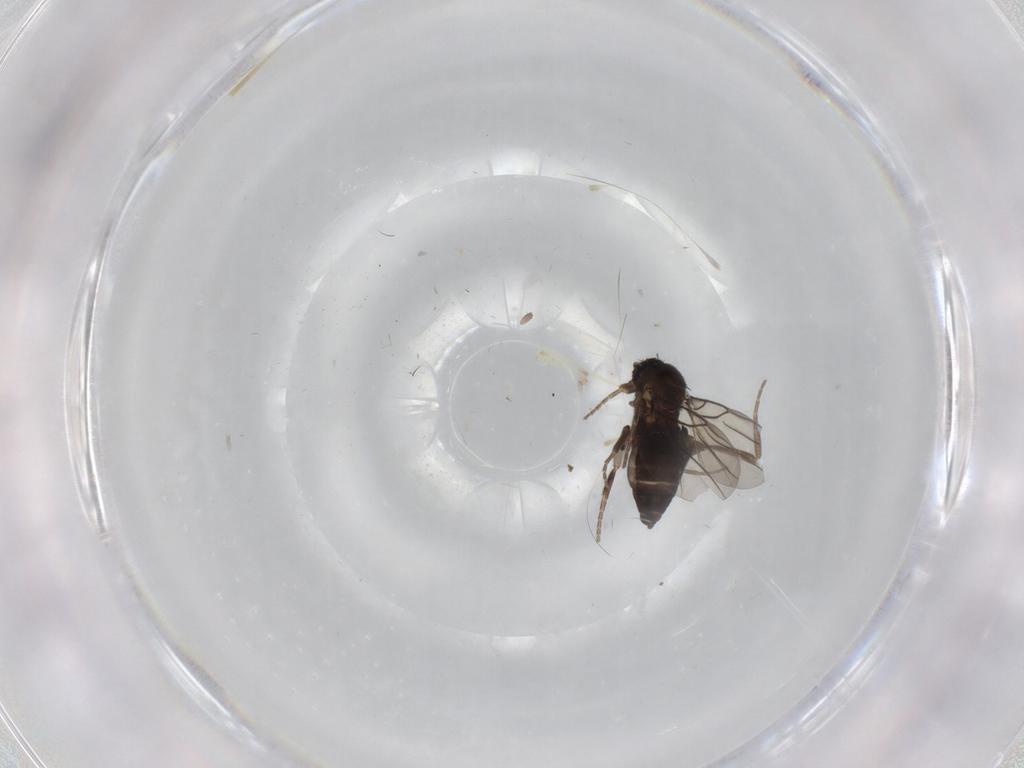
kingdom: Animalia
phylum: Arthropoda
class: Insecta
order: Diptera
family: Phoridae
